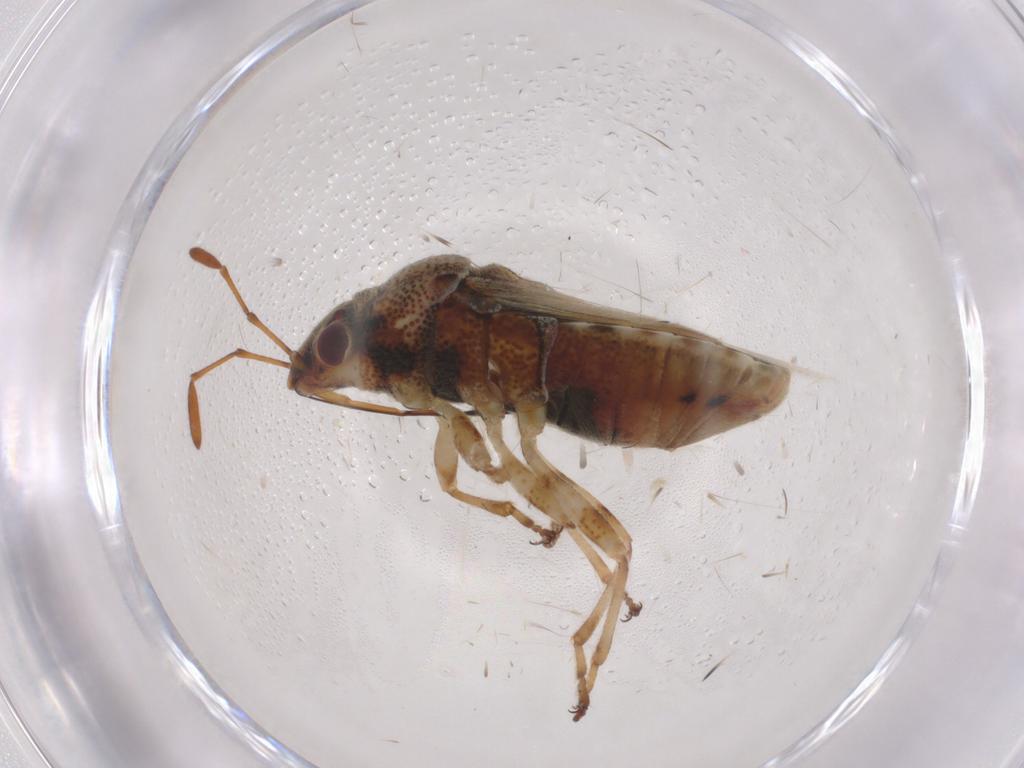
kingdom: Animalia
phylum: Arthropoda
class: Insecta
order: Hemiptera
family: Lygaeidae
